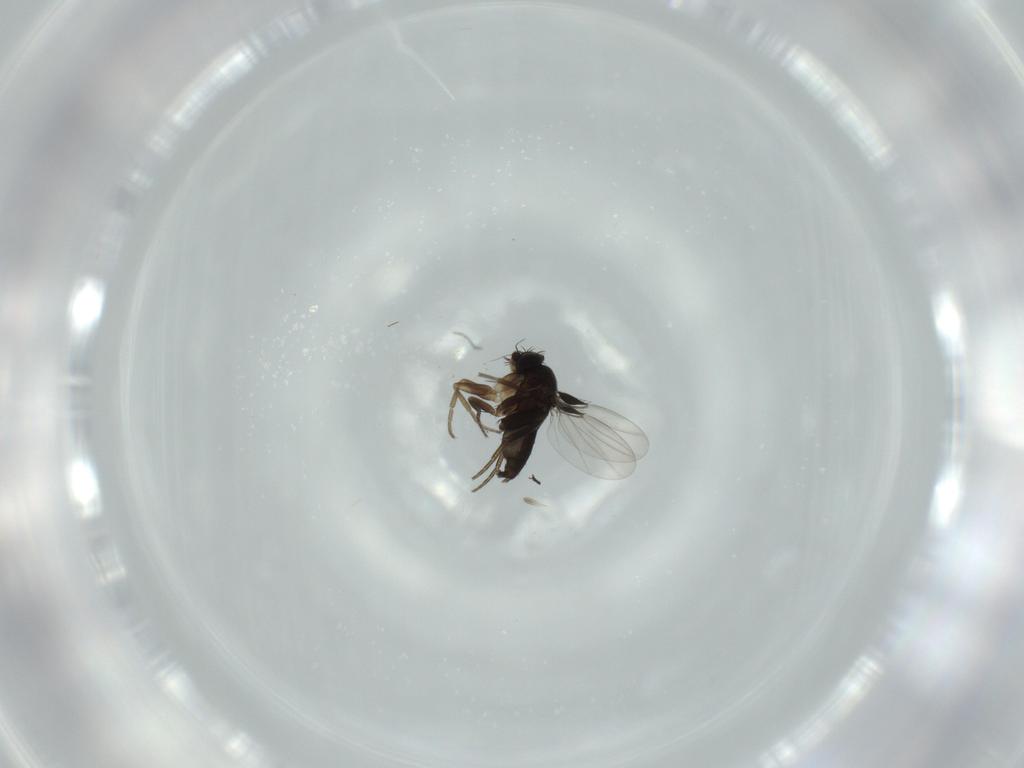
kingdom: Animalia
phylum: Arthropoda
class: Insecta
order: Diptera
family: Phoridae
